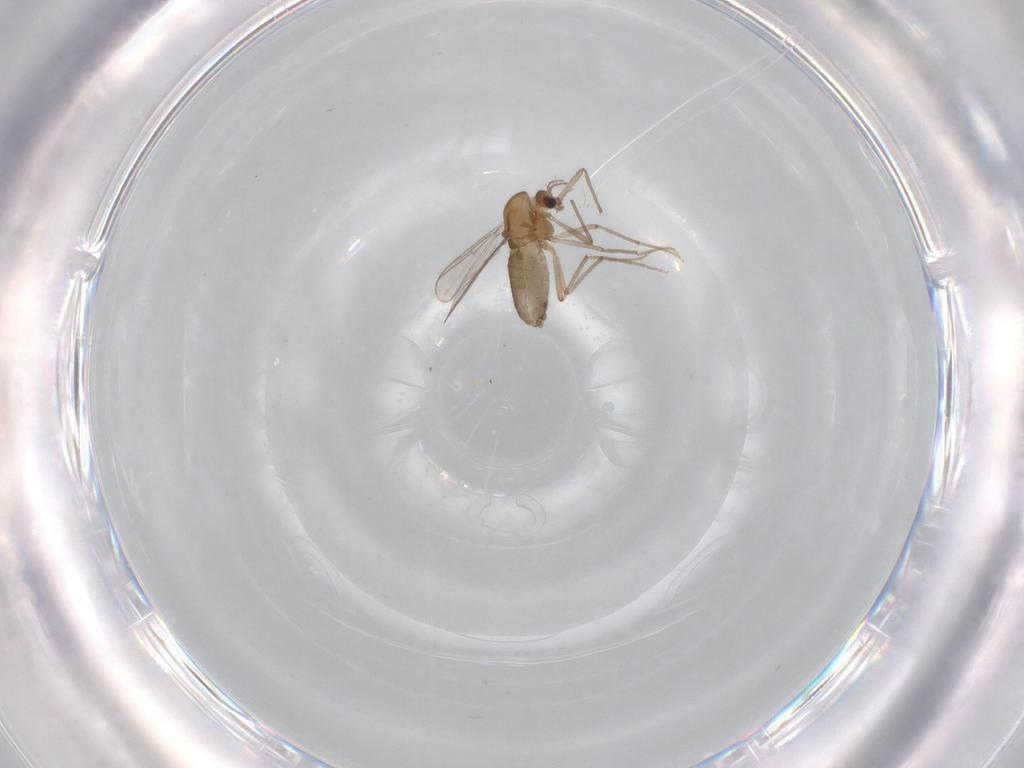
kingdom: Animalia
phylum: Arthropoda
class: Insecta
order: Diptera
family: Chironomidae
